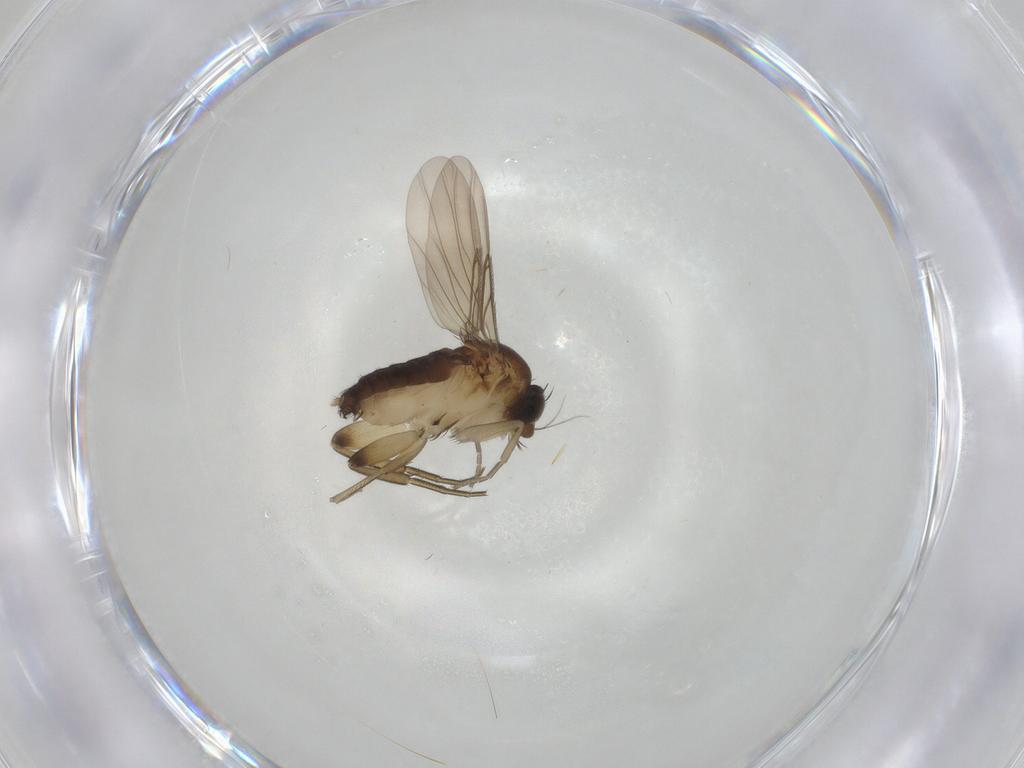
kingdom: Animalia
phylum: Arthropoda
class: Insecta
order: Diptera
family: Phoridae
